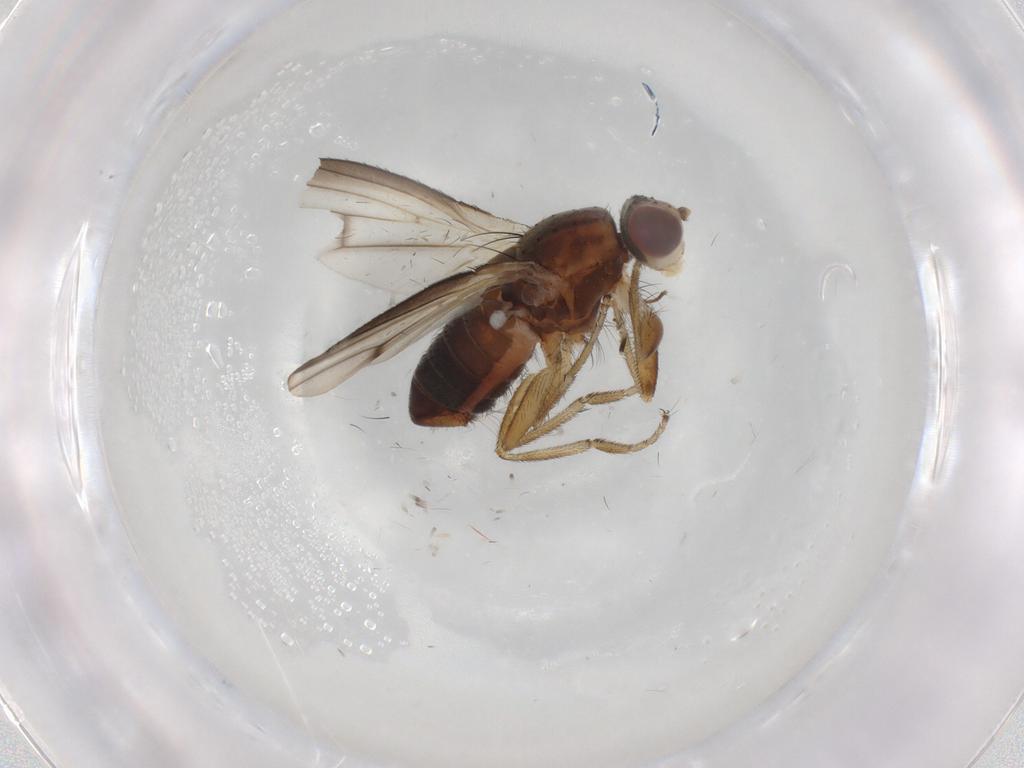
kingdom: Animalia
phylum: Arthropoda
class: Insecta
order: Diptera
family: Heleomyzidae
